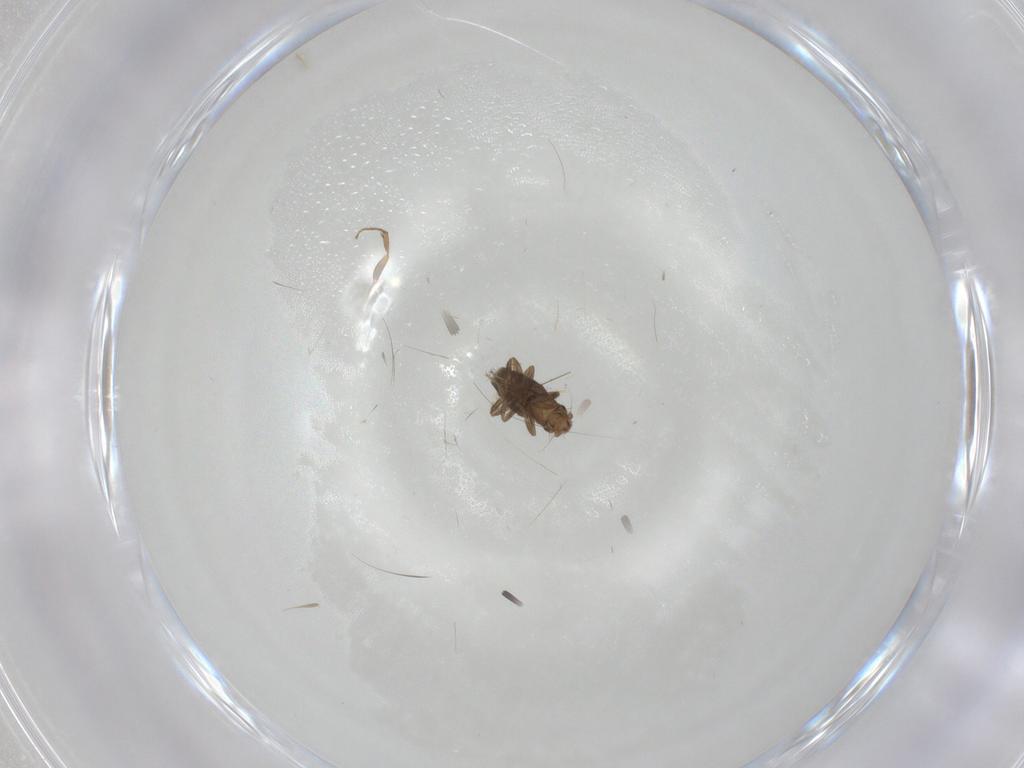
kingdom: Animalia
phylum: Arthropoda
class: Insecta
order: Diptera
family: Phoridae
